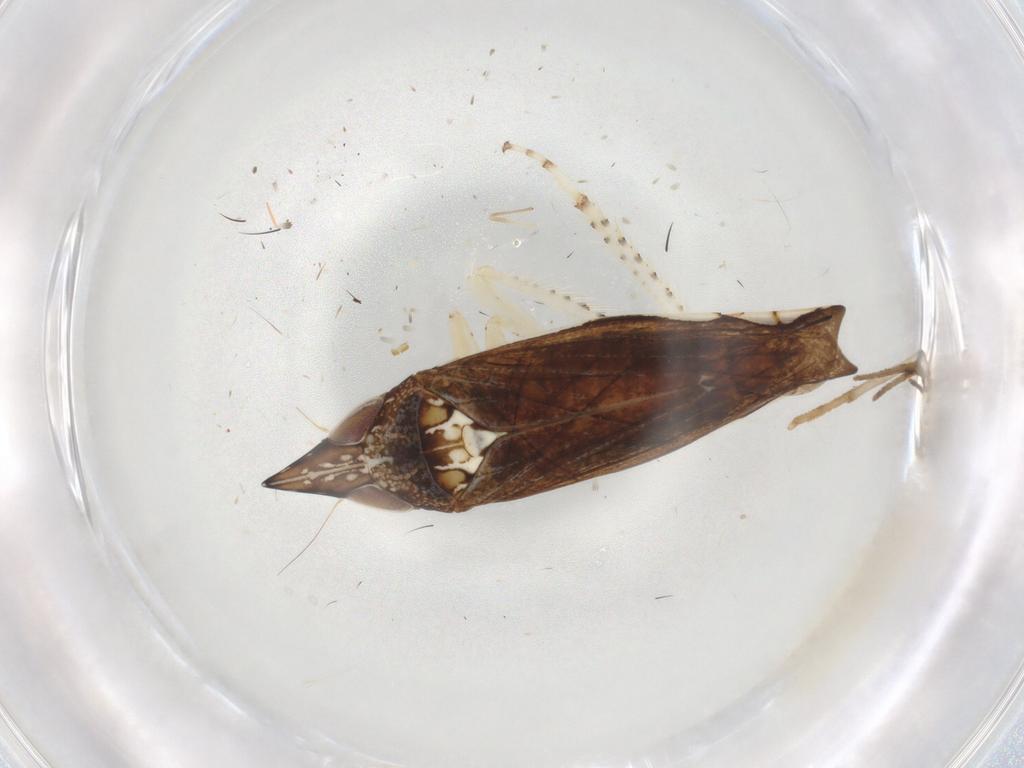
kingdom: Animalia
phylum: Arthropoda
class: Insecta
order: Hemiptera
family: Cicadellidae
